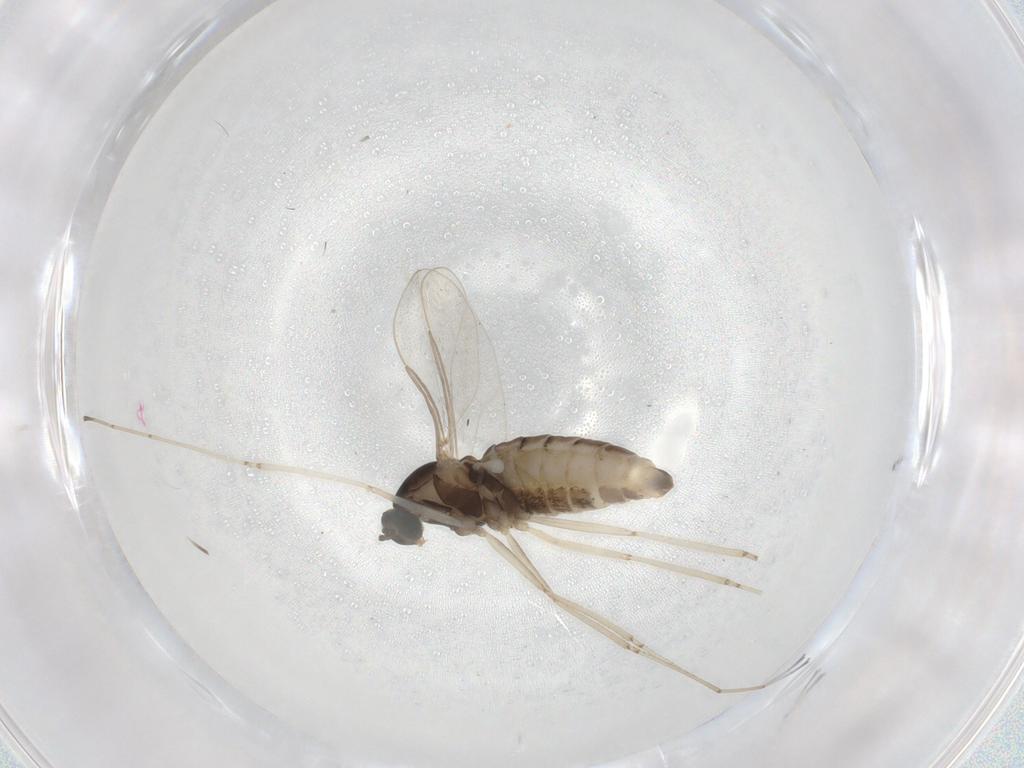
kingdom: Animalia
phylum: Arthropoda
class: Insecta
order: Diptera
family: Cecidomyiidae
